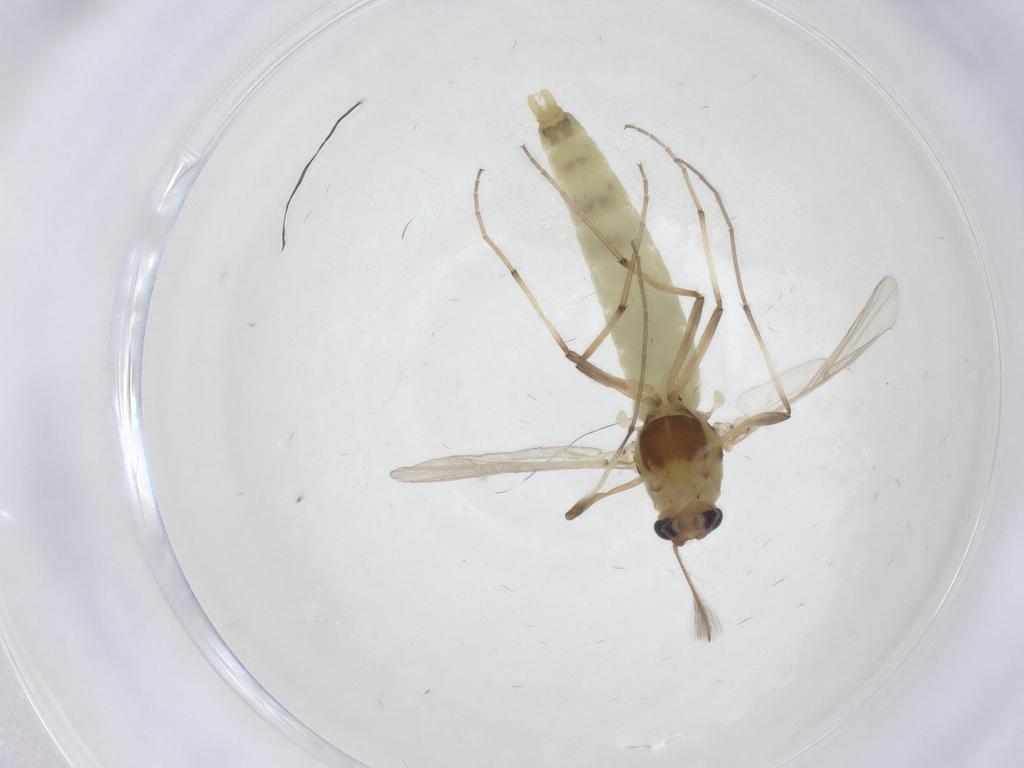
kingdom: Animalia
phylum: Arthropoda
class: Insecta
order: Diptera
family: Chironomidae
